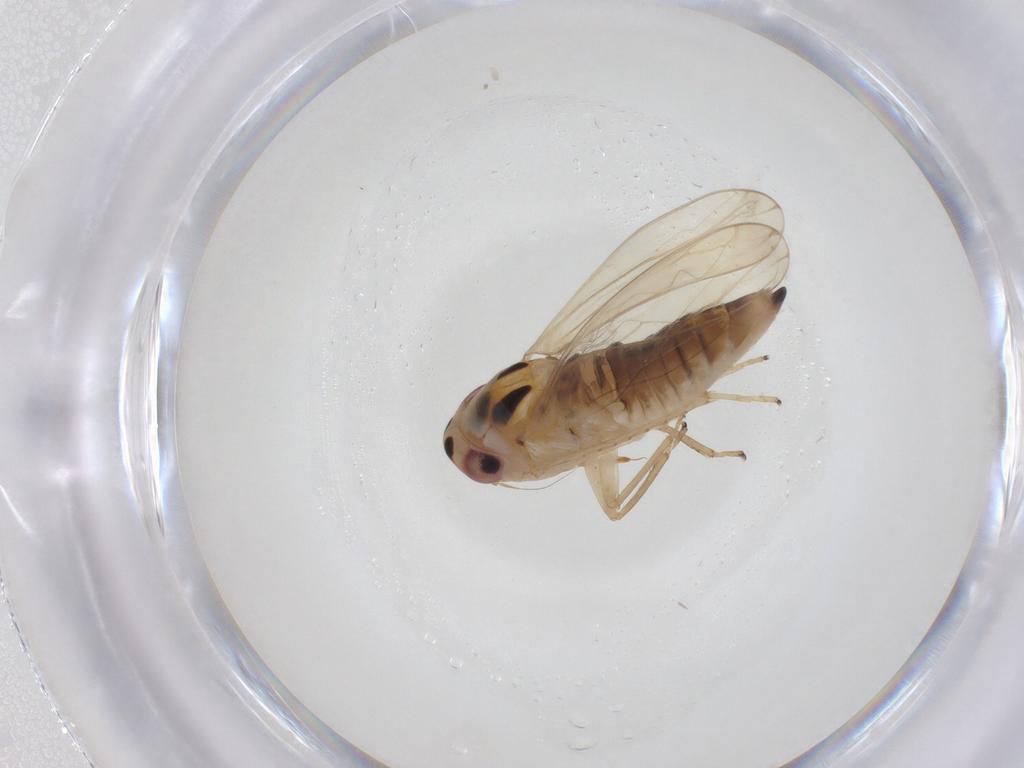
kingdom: Animalia
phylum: Arthropoda
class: Insecta
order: Hemiptera
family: Cicadellidae
